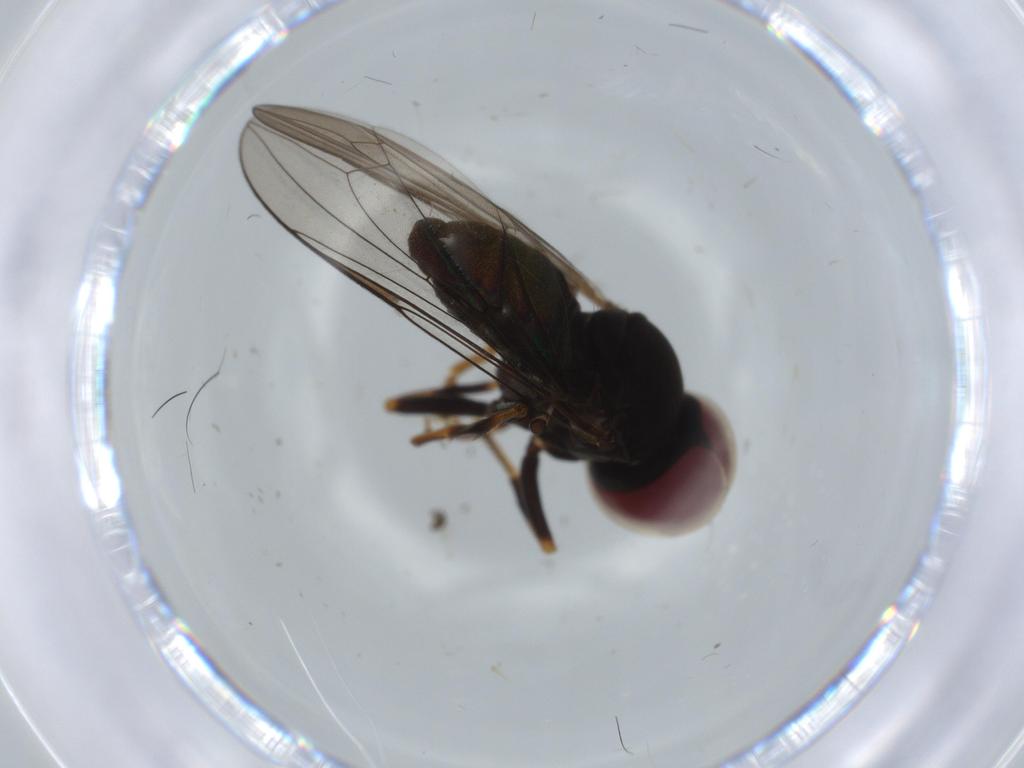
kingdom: Animalia
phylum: Arthropoda
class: Insecta
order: Diptera
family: Pipunculidae
